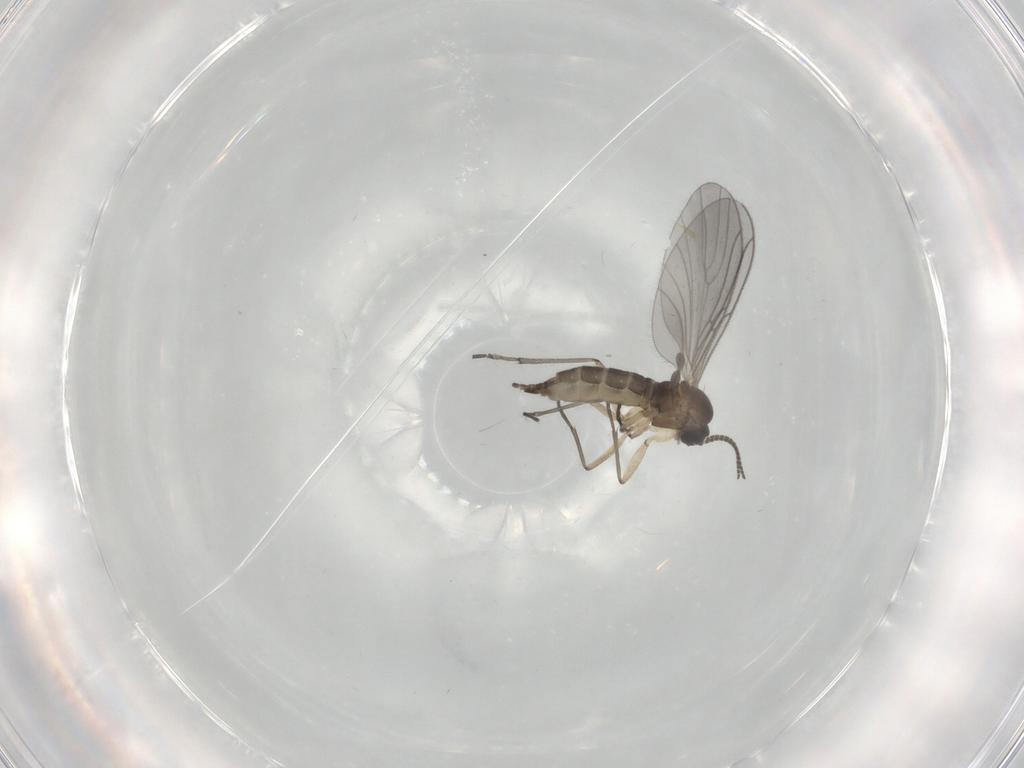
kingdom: Animalia
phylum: Arthropoda
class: Insecta
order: Diptera
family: Sciaridae
